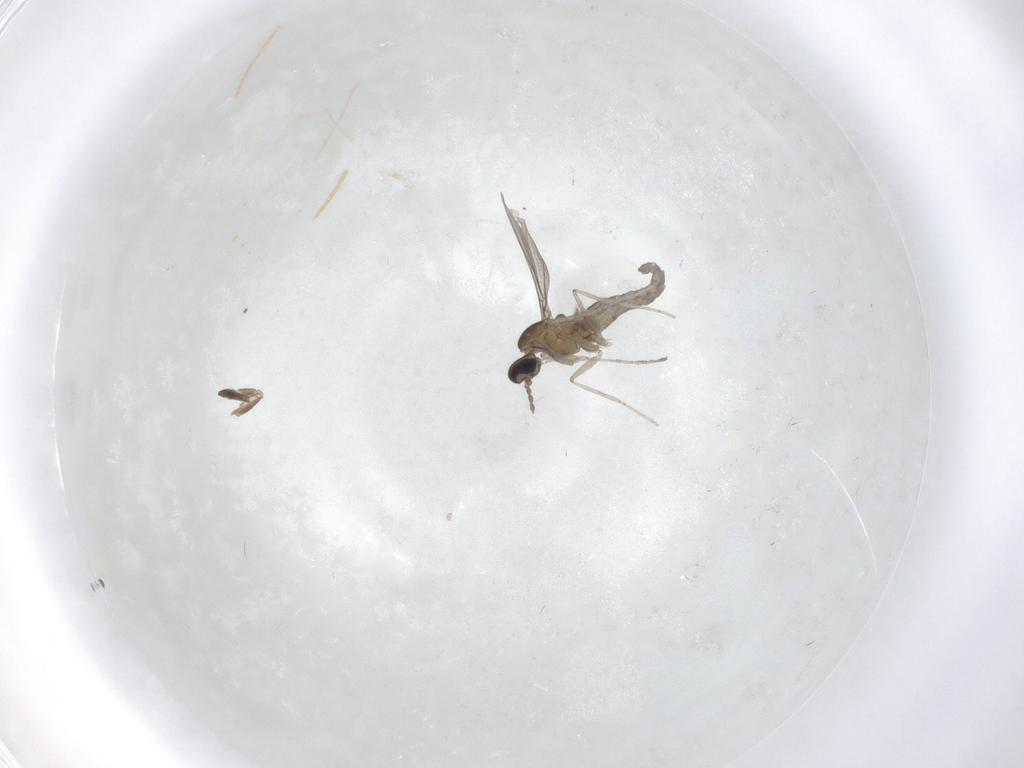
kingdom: Animalia
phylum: Arthropoda
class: Insecta
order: Diptera
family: Cecidomyiidae
